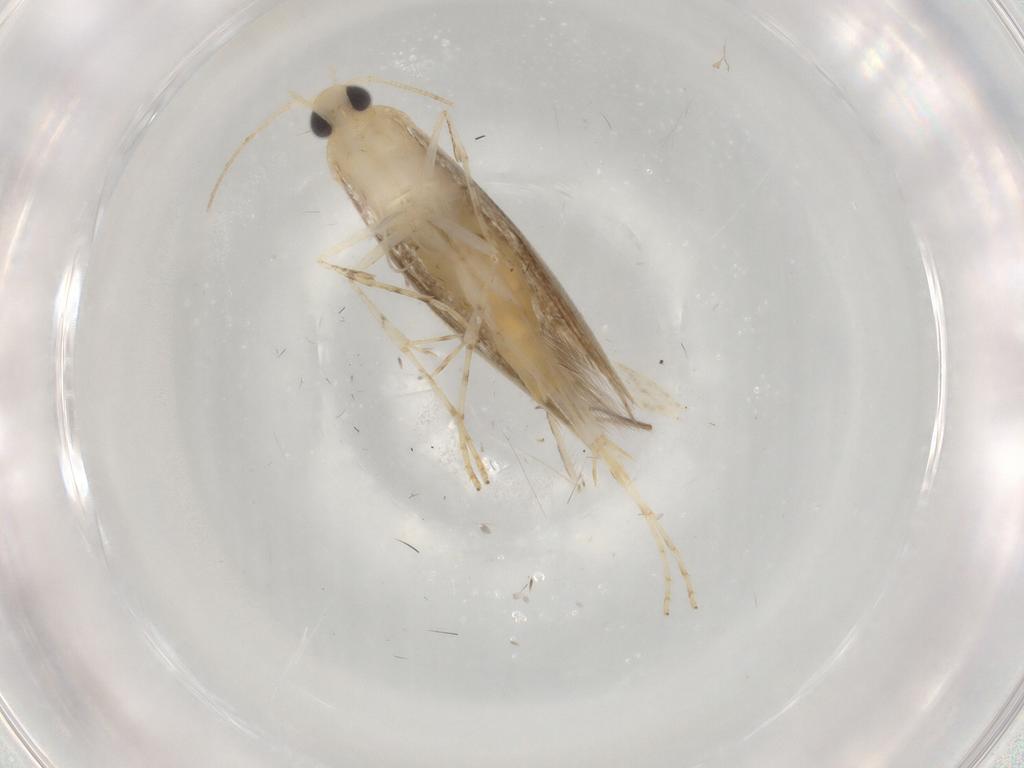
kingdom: Animalia
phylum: Arthropoda
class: Insecta
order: Lepidoptera
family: Argyresthiidae
